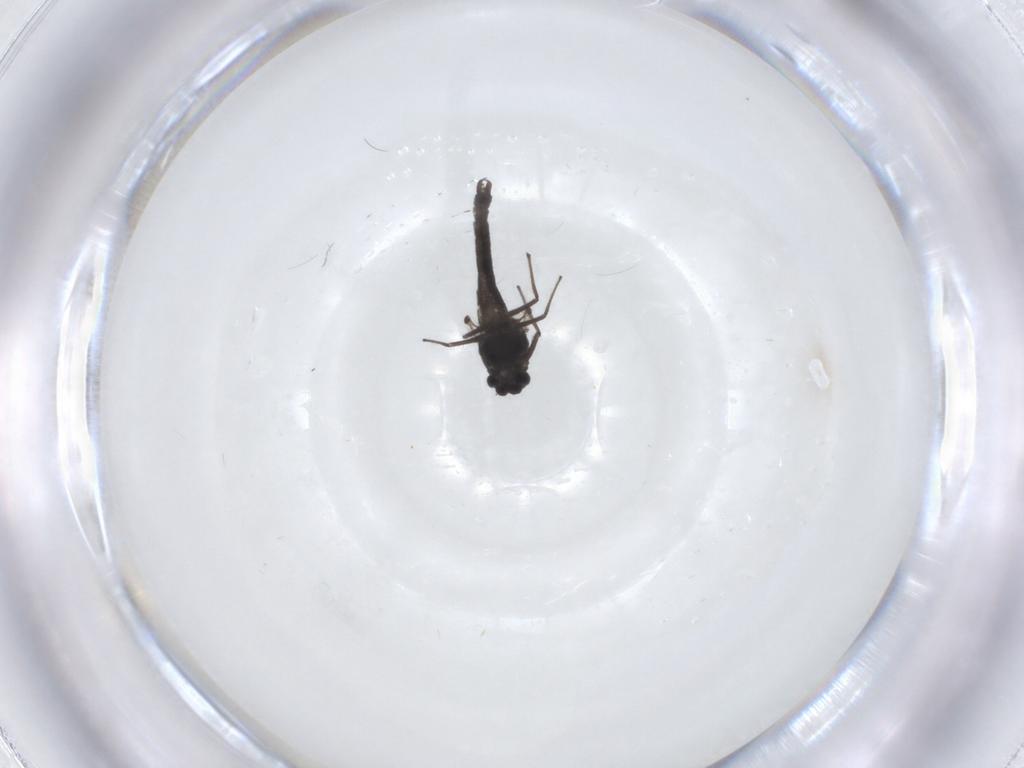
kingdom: Animalia
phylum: Arthropoda
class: Insecta
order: Diptera
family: Chironomidae
